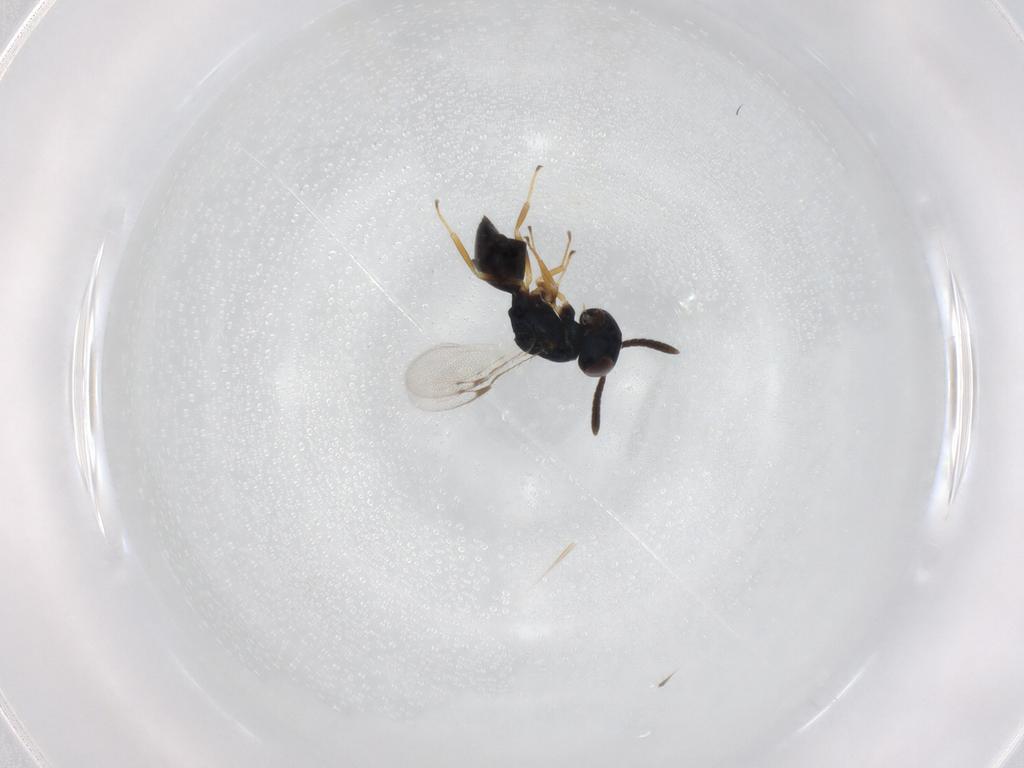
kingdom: Animalia
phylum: Arthropoda
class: Insecta
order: Hymenoptera
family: Pteromalidae
